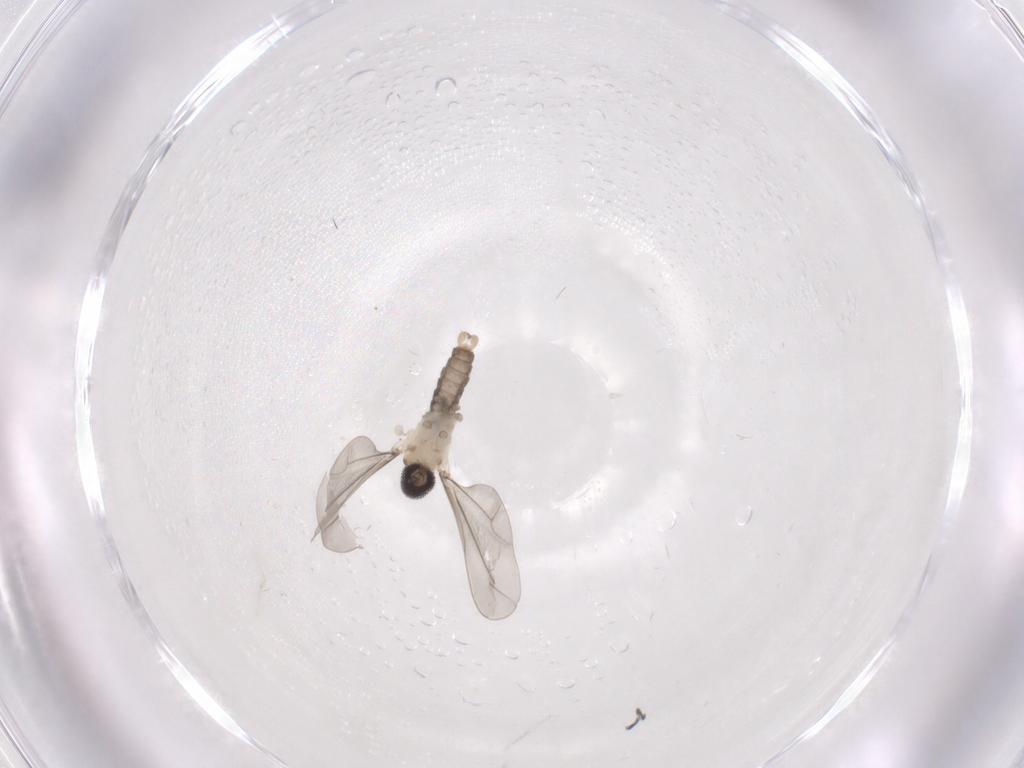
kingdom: Animalia
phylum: Arthropoda
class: Insecta
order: Diptera
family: Cecidomyiidae
